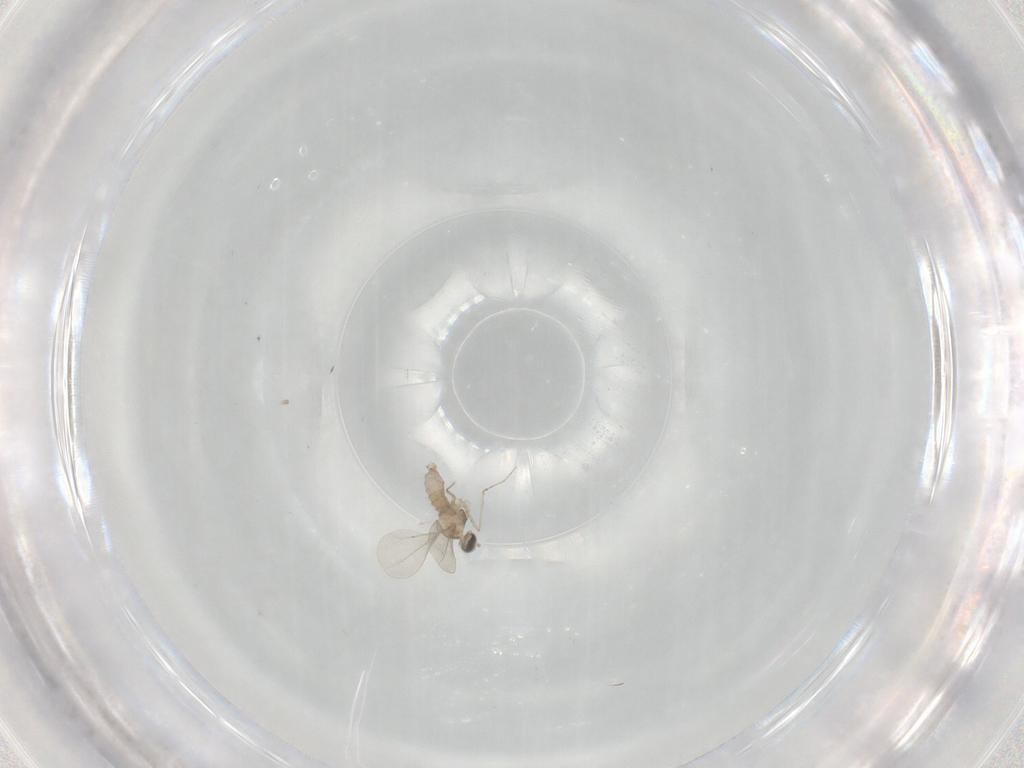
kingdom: Animalia
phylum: Arthropoda
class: Insecta
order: Diptera
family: Cecidomyiidae
